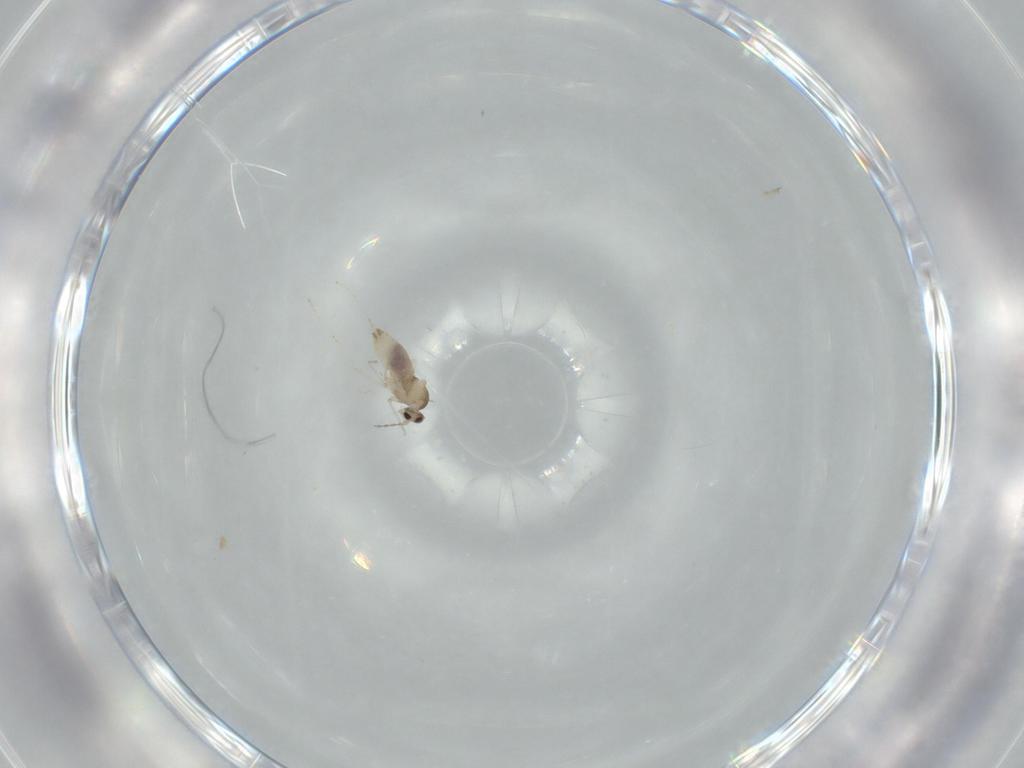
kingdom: Animalia
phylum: Arthropoda
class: Insecta
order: Diptera
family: Cecidomyiidae
